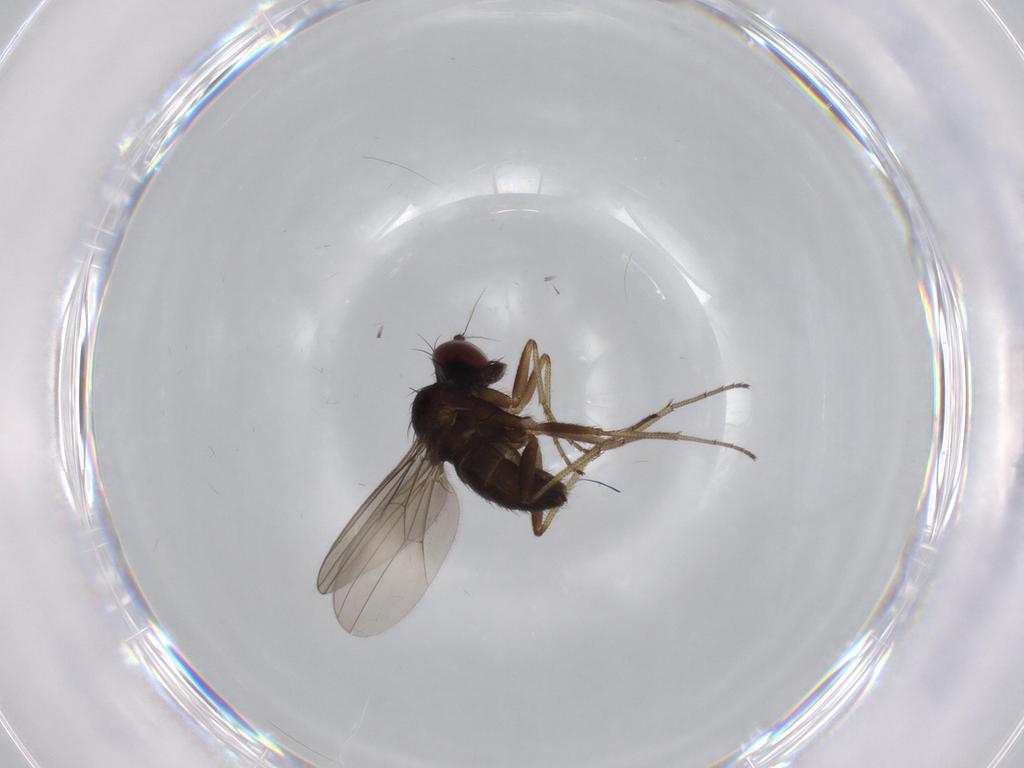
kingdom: Animalia
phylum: Arthropoda
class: Insecta
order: Diptera
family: Dolichopodidae
